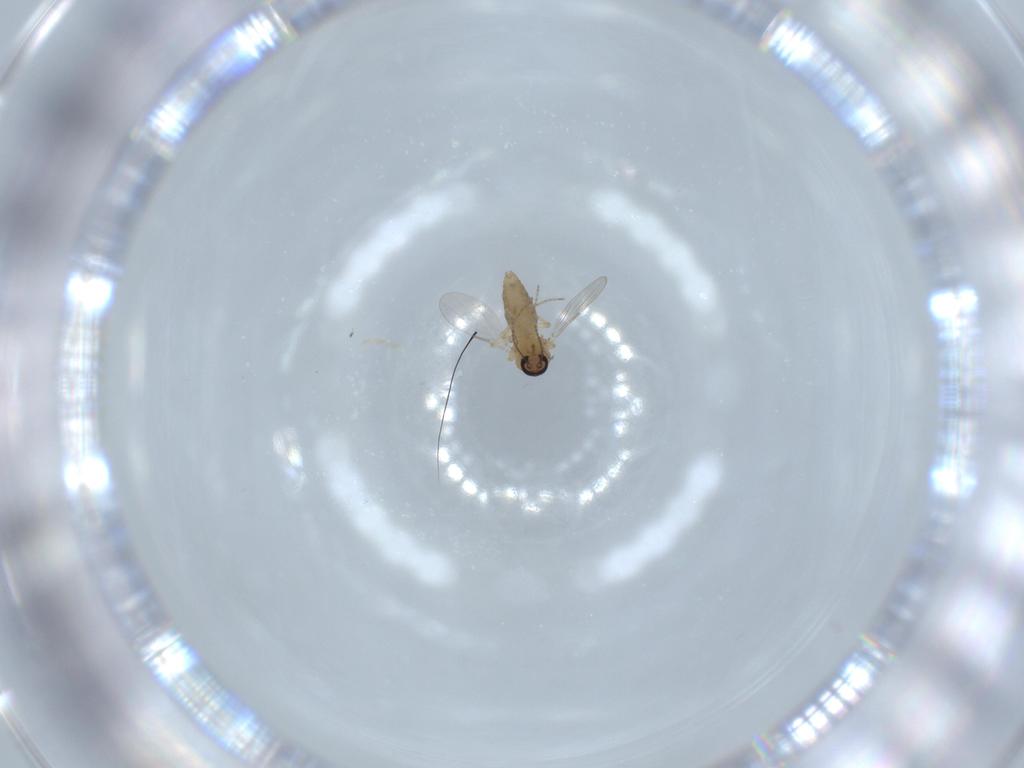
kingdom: Animalia
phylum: Arthropoda
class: Insecta
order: Diptera
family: Ceratopogonidae
